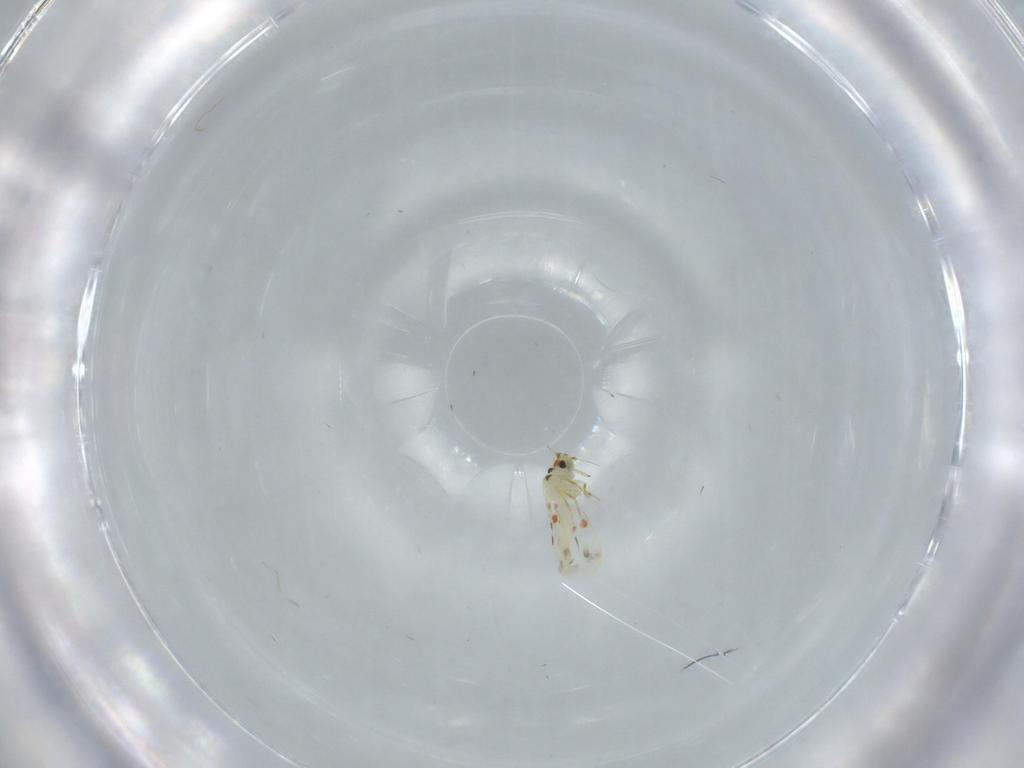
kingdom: Animalia
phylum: Arthropoda
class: Insecta
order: Hemiptera
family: Aleyrodidae
